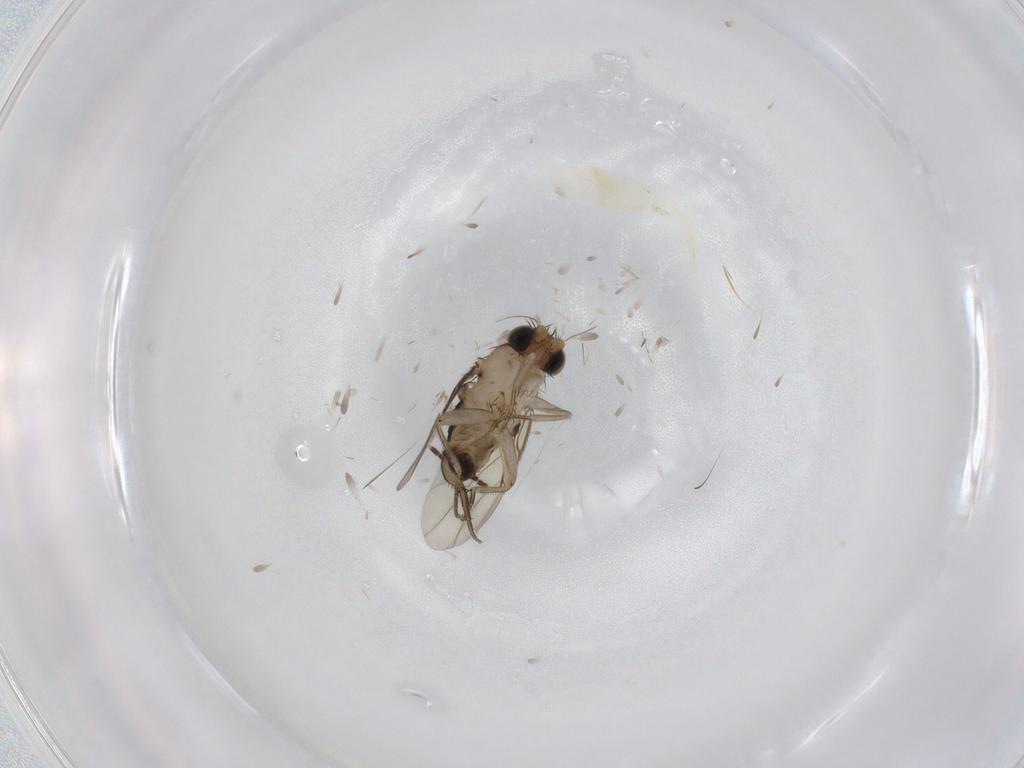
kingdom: Animalia
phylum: Arthropoda
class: Insecta
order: Diptera
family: Phoridae
